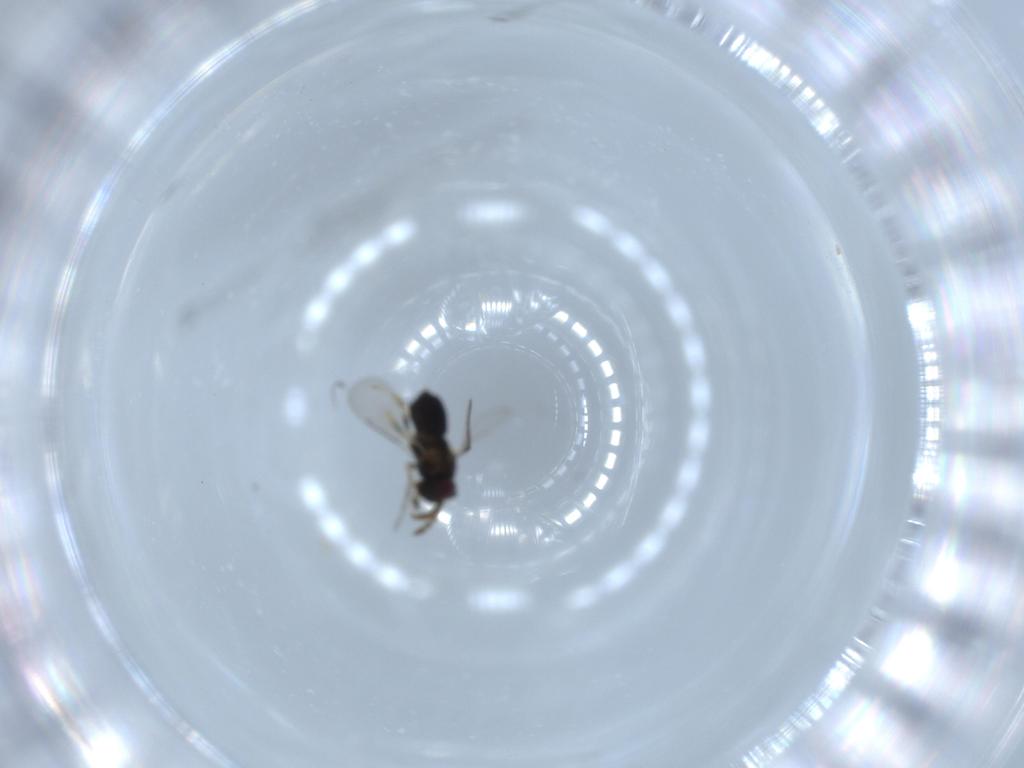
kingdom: Animalia
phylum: Arthropoda
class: Insecta
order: Hymenoptera
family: Aphelinidae
